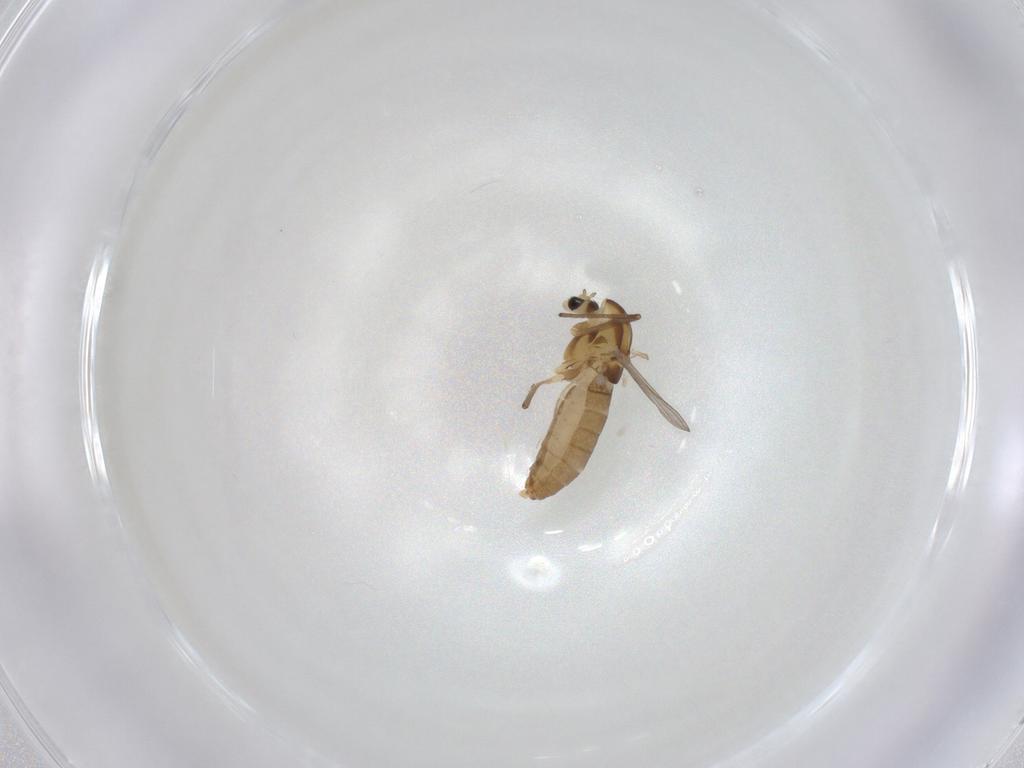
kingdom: Animalia
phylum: Arthropoda
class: Insecta
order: Diptera
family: Chironomidae
